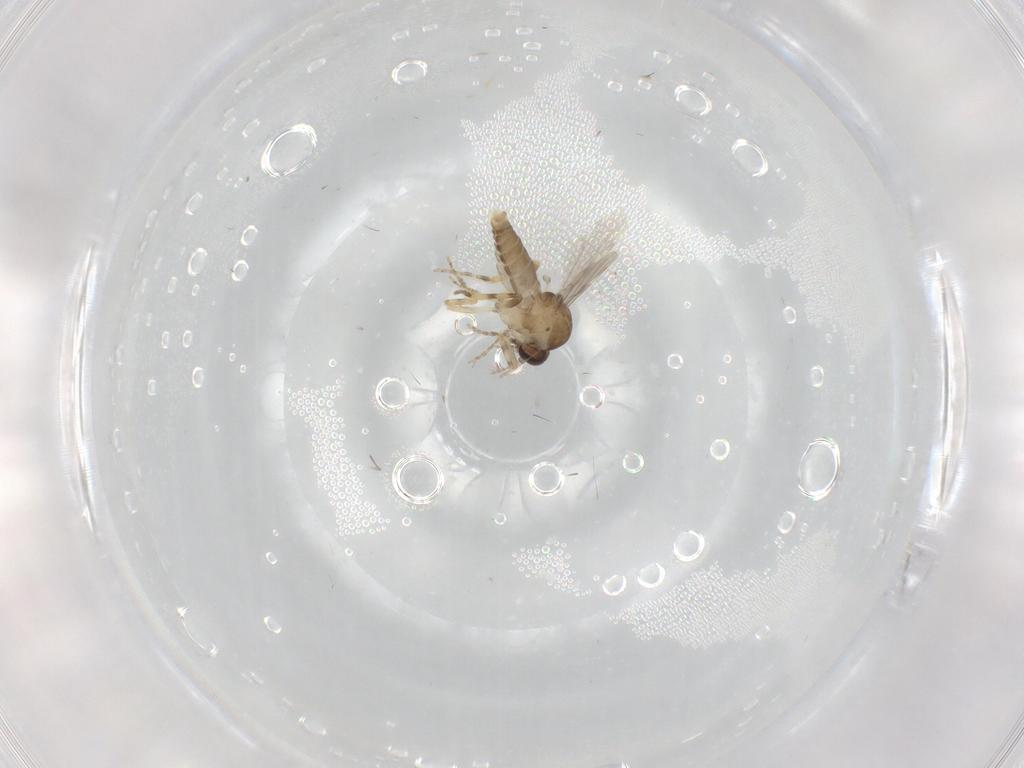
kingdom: Animalia
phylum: Arthropoda
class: Insecta
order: Diptera
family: Ceratopogonidae
